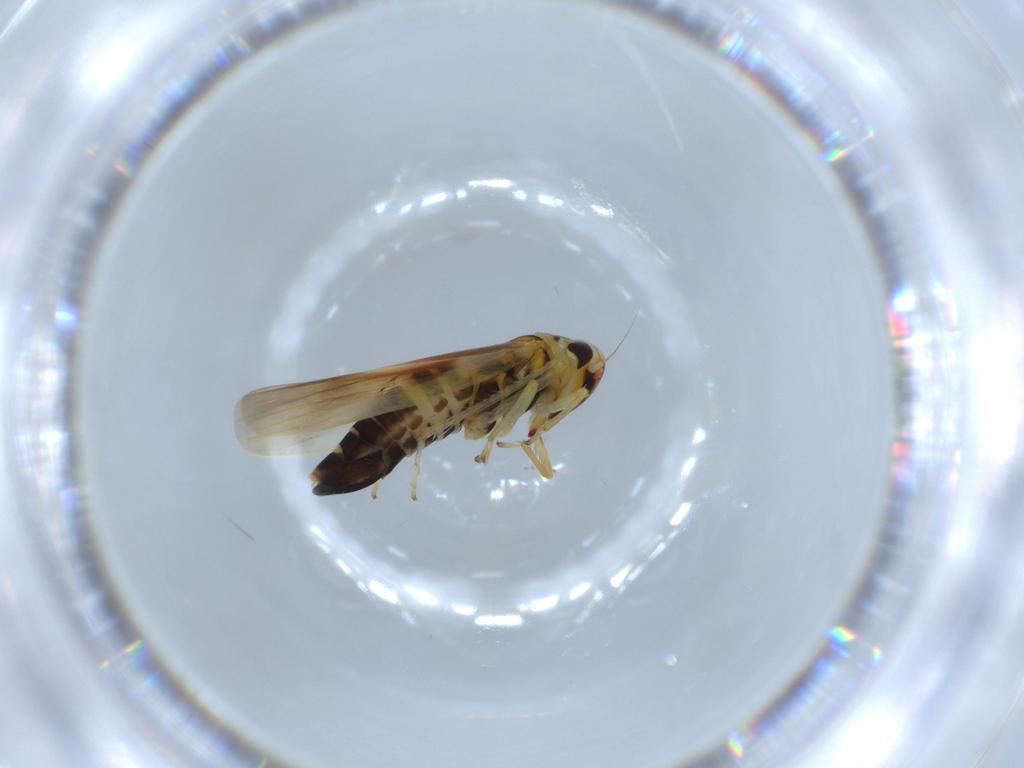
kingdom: Animalia
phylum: Arthropoda
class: Insecta
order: Hemiptera
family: Cicadellidae
